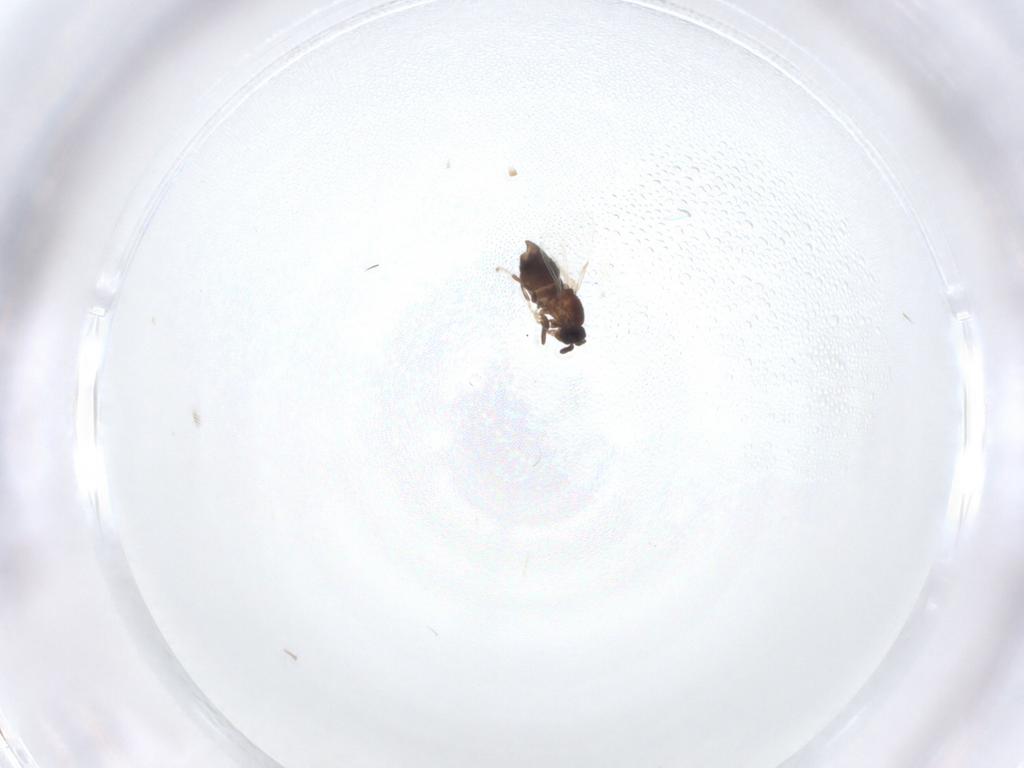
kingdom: Animalia
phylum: Arthropoda
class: Insecta
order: Diptera
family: Scatopsidae
